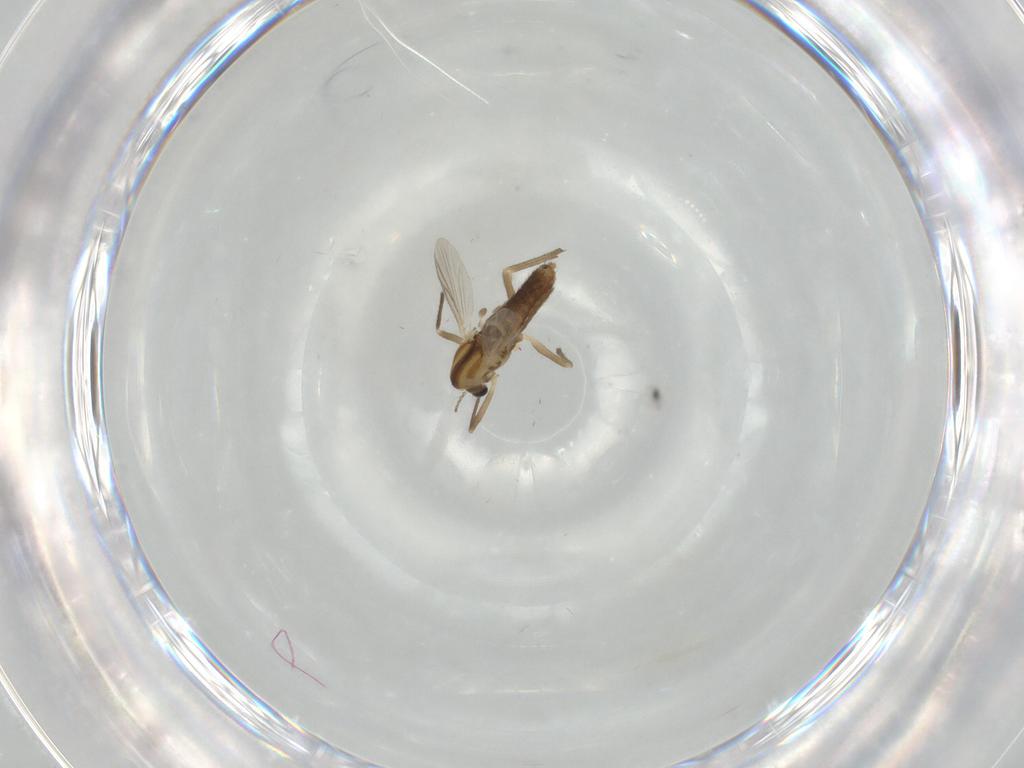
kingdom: Animalia
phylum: Arthropoda
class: Insecta
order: Diptera
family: Chironomidae
